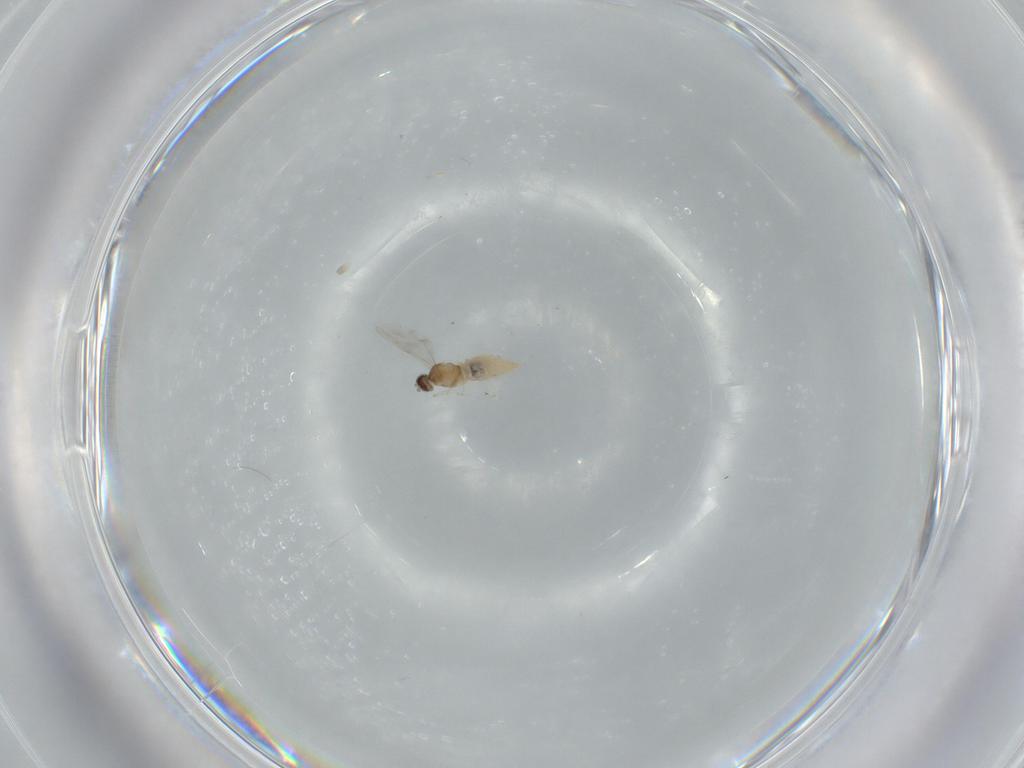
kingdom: Animalia
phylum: Arthropoda
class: Insecta
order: Diptera
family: Cecidomyiidae
